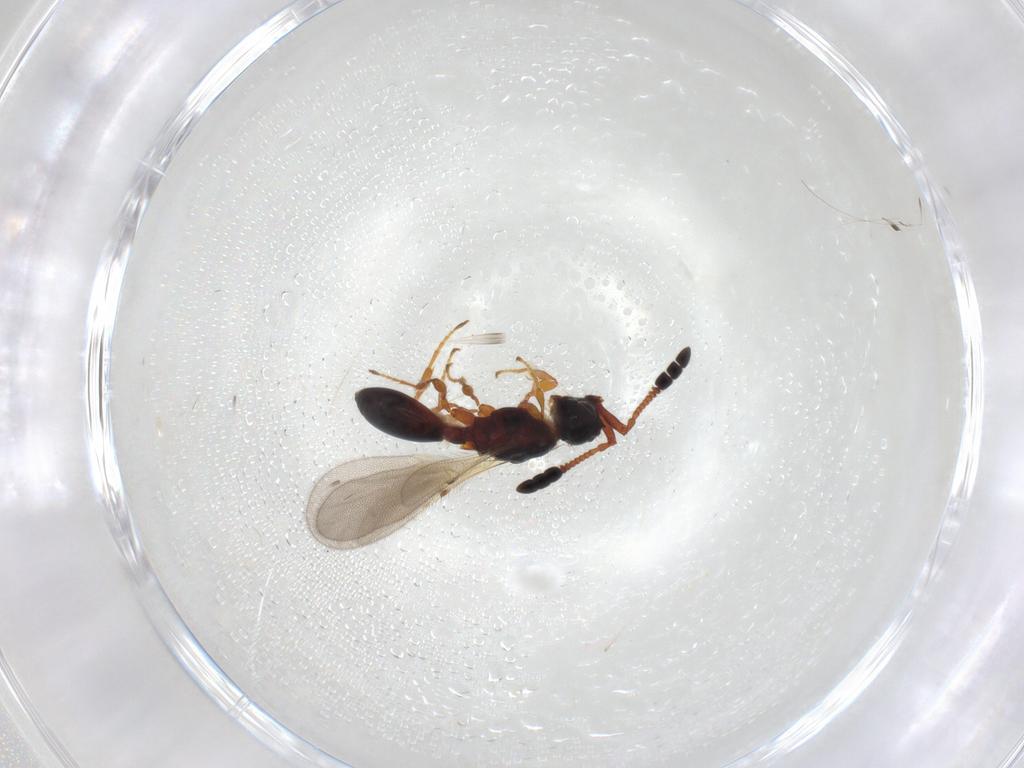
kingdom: Animalia
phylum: Arthropoda
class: Insecta
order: Hymenoptera
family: Diapriidae
